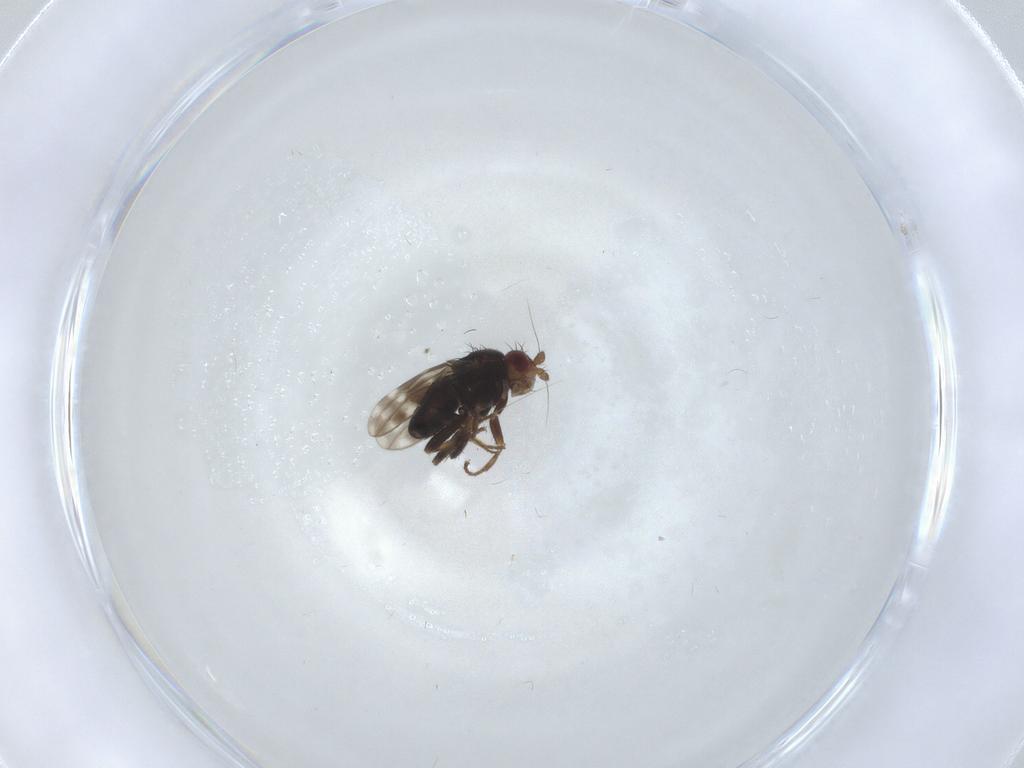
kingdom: Animalia
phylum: Arthropoda
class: Insecta
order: Diptera
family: Sphaeroceridae
